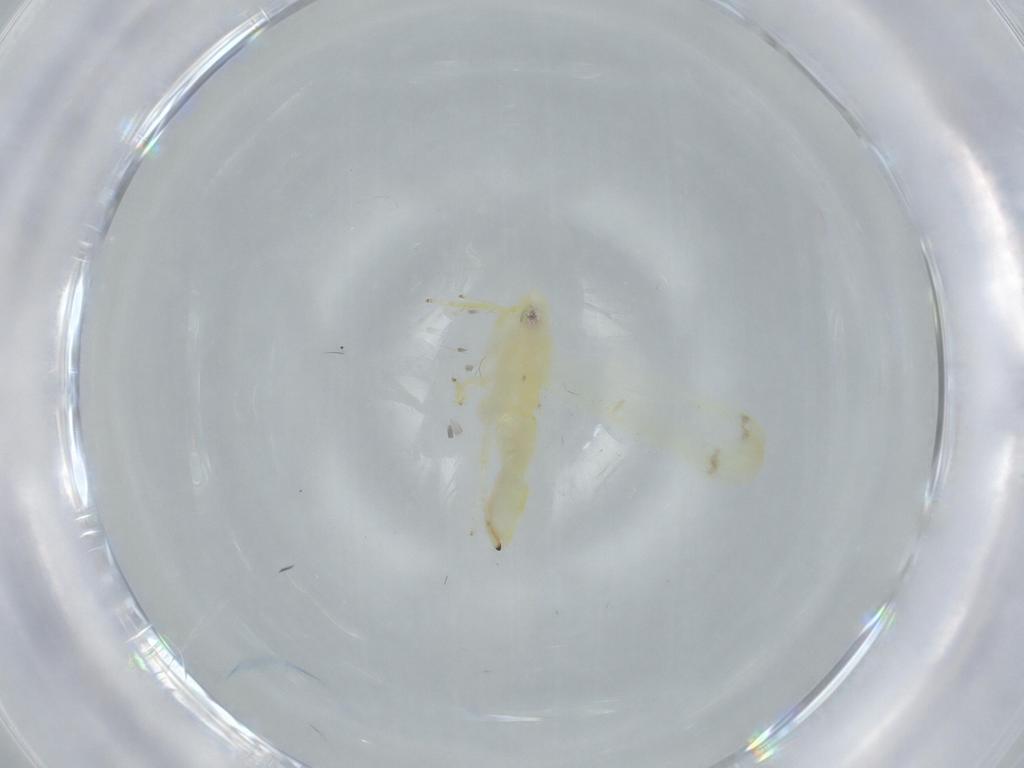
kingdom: Animalia
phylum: Arthropoda
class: Insecta
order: Hemiptera
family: Cicadellidae
